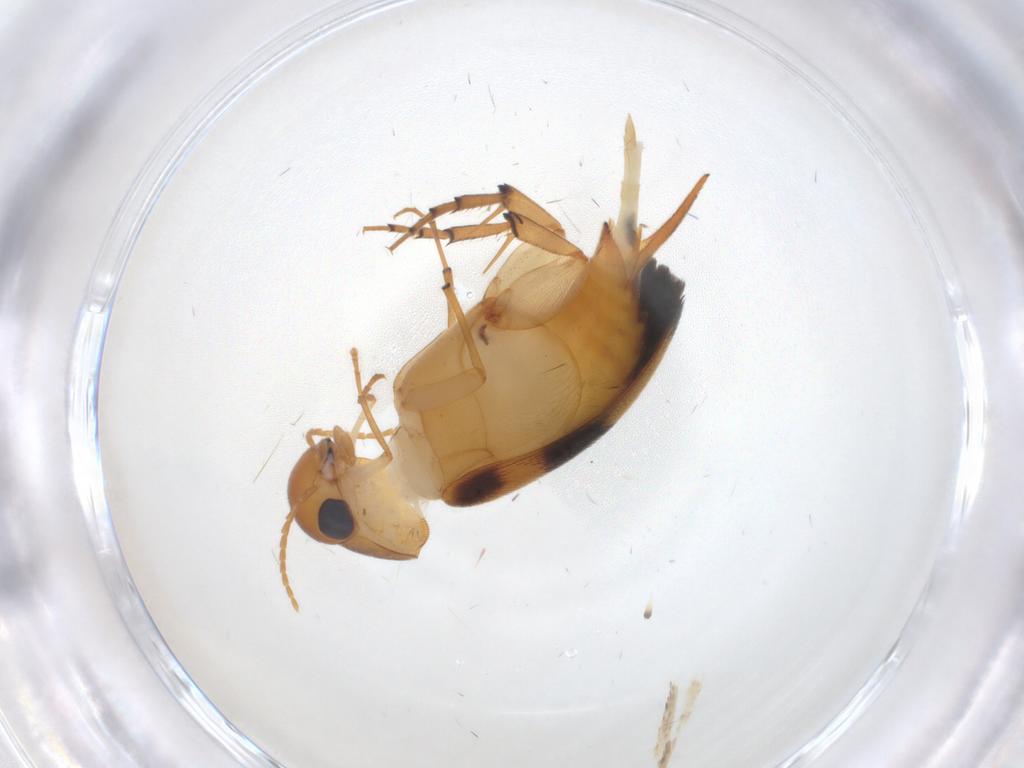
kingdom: Animalia
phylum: Arthropoda
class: Insecta
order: Coleoptera
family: Mordellidae
